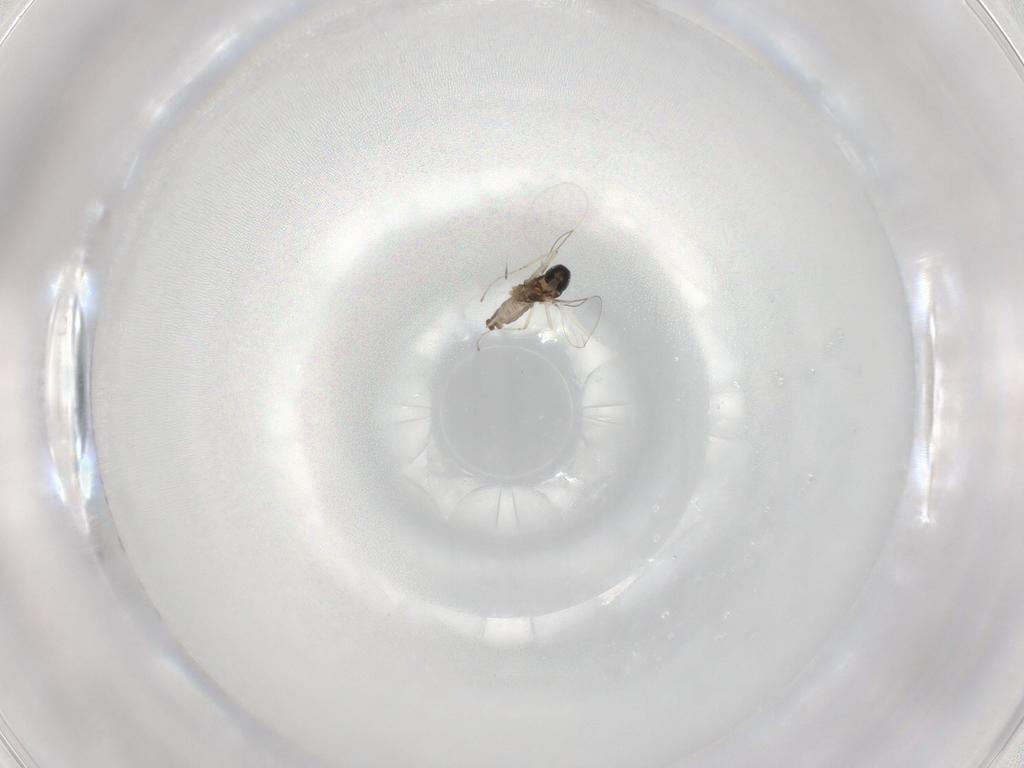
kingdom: Animalia
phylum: Arthropoda
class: Insecta
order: Diptera
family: Cecidomyiidae
